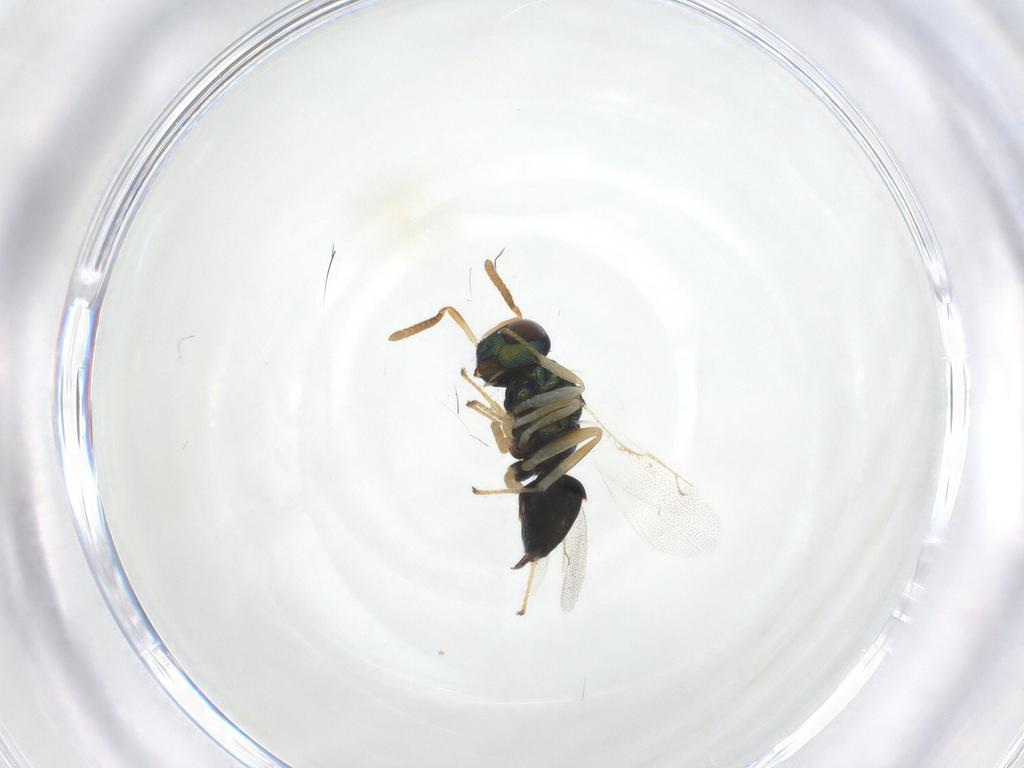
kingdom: Animalia
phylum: Arthropoda
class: Insecta
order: Hymenoptera
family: Pteromalidae
